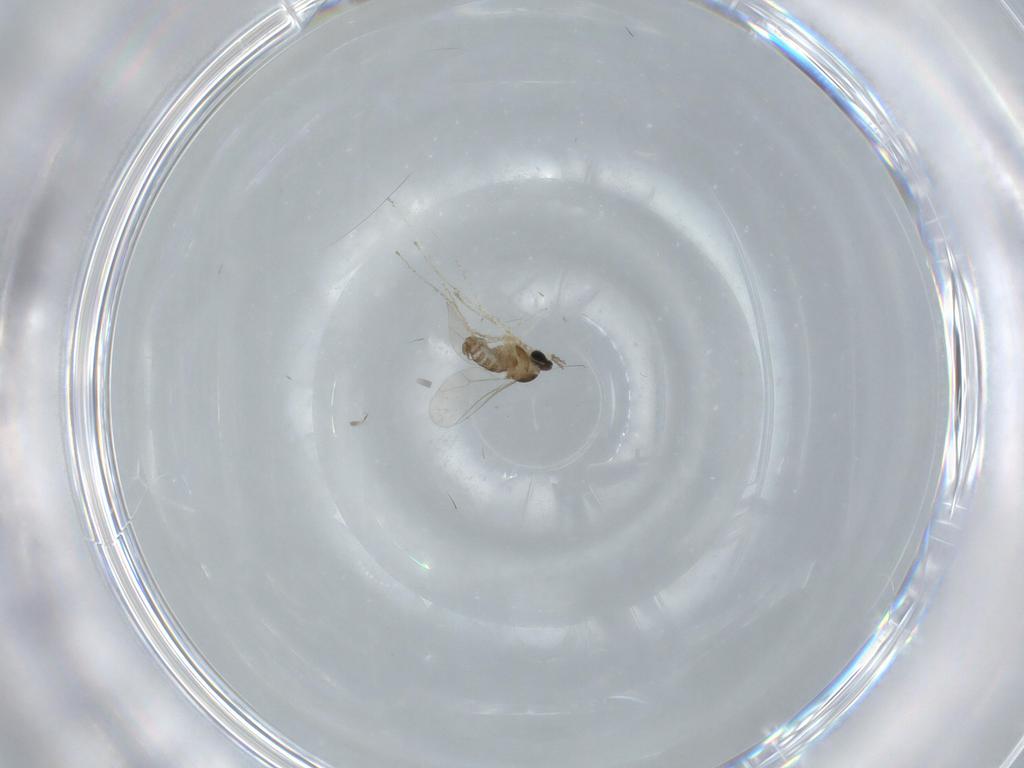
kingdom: Animalia
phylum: Arthropoda
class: Insecta
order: Diptera
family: Cecidomyiidae
